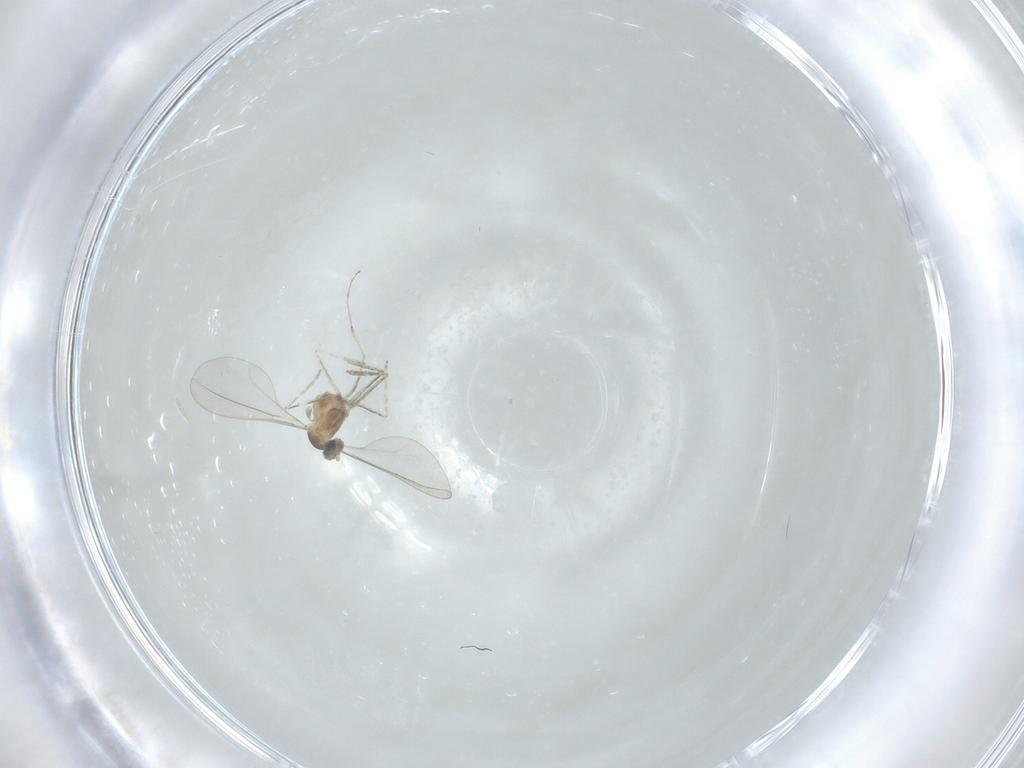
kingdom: Animalia
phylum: Arthropoda
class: Insecta
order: Diptera
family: Cecidomyiidae
